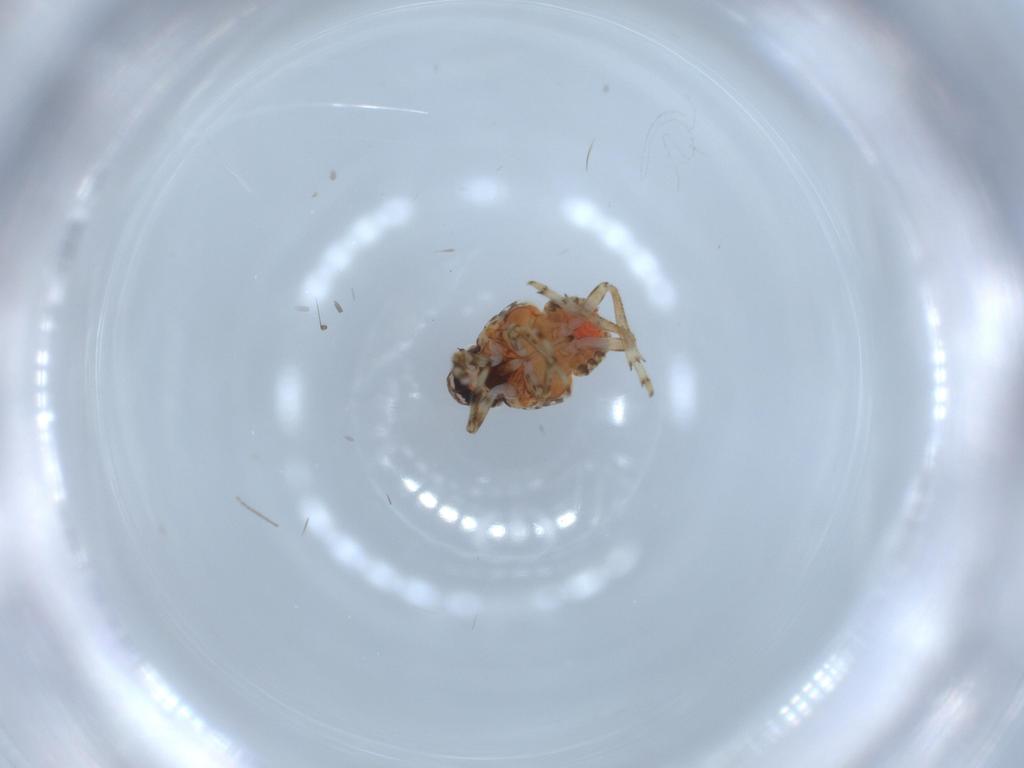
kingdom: Animalia
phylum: Arthropoda
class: Insecta
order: Hemiptera
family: Issidae
